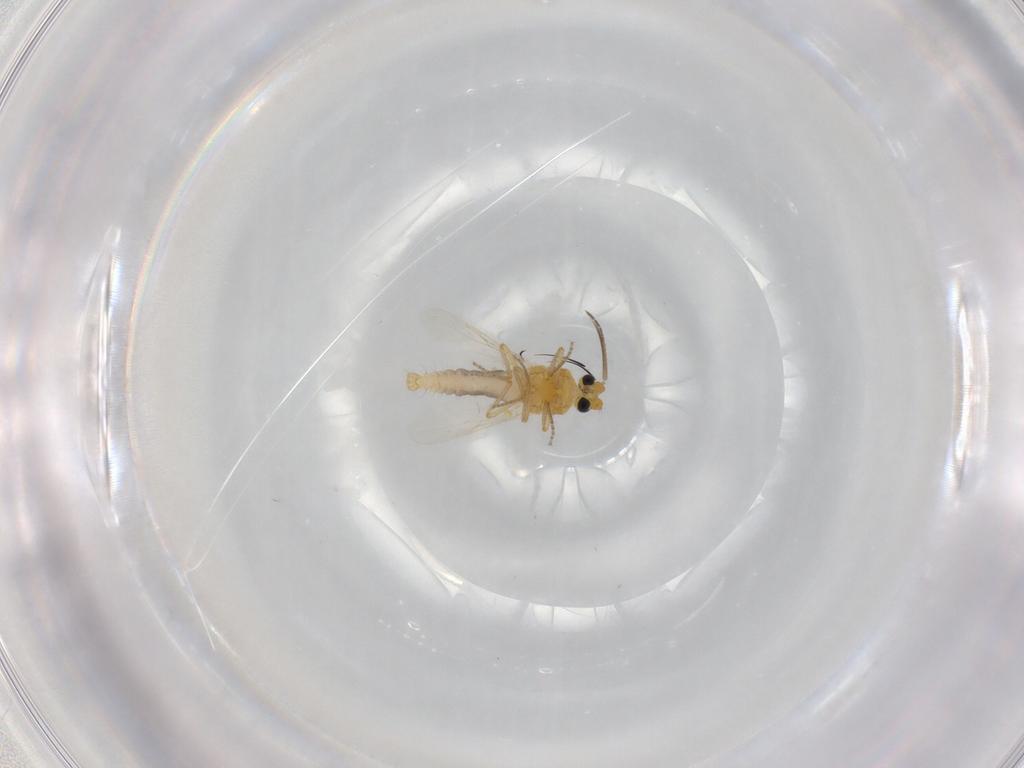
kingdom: Animalia
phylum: Arthropoda
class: Insecta
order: Diptera
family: Ceratopogonidae
